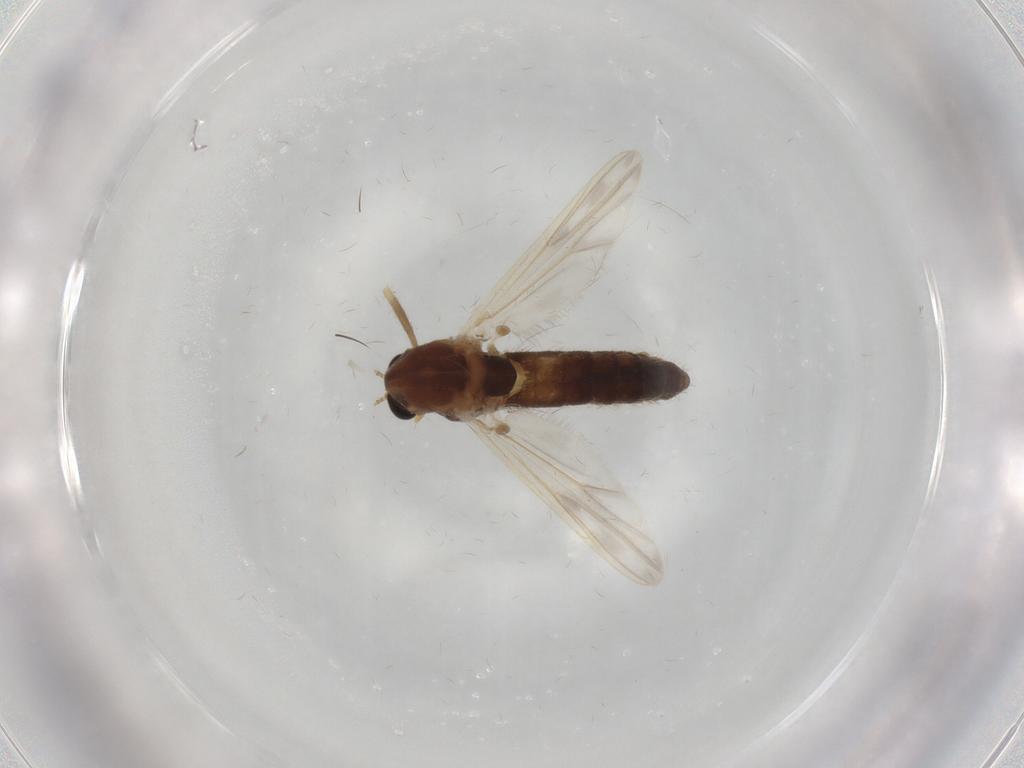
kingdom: Animalia
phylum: Arthropoda
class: Insecta
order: Diptera
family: Chironomidae
